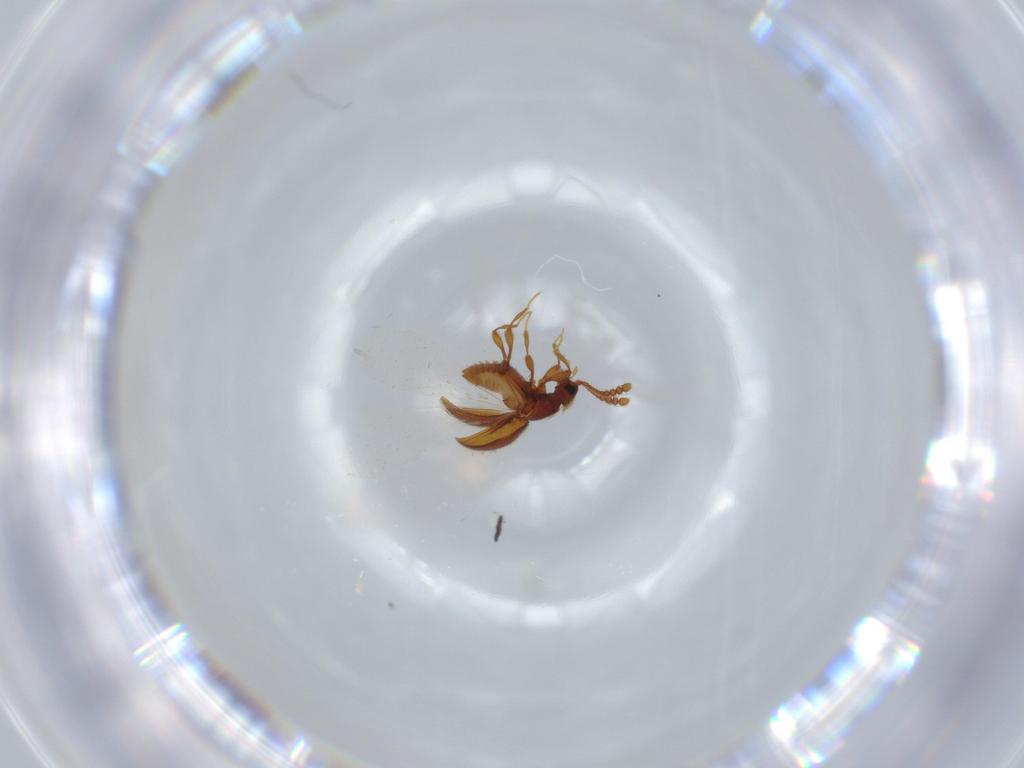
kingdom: Animalia
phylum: Arthropoda
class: Insecta
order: Coleoptera
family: Staphylinidae
